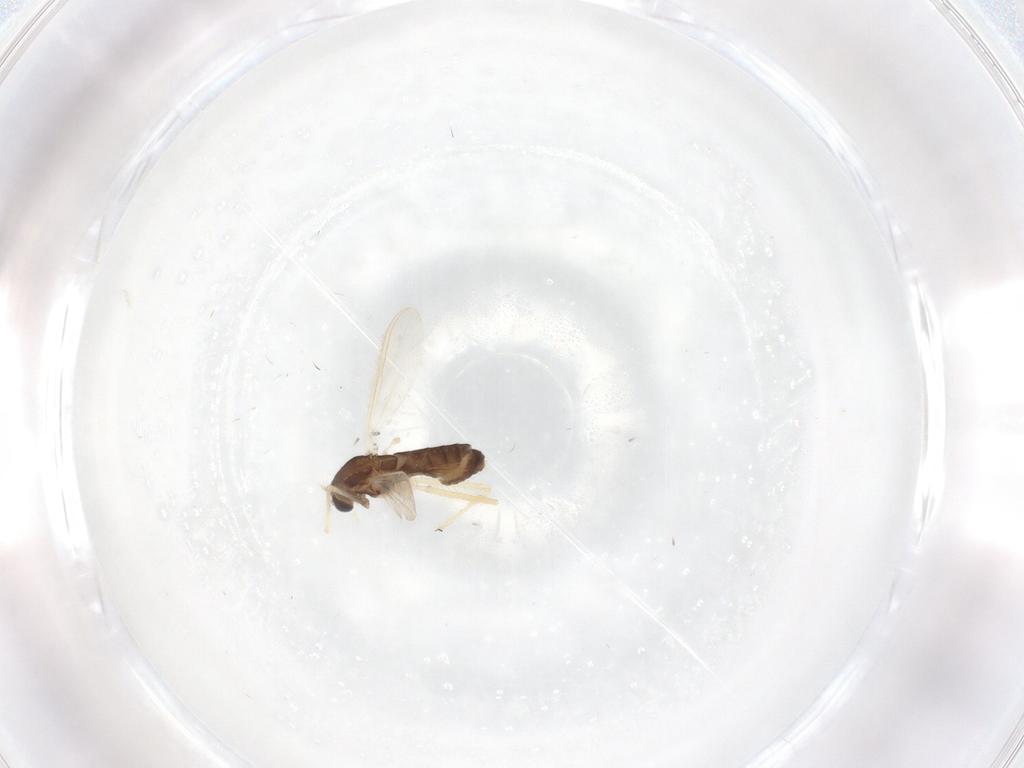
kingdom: Animalia
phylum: Arthropoda
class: Insecta
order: Diptera
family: Chironomidae
